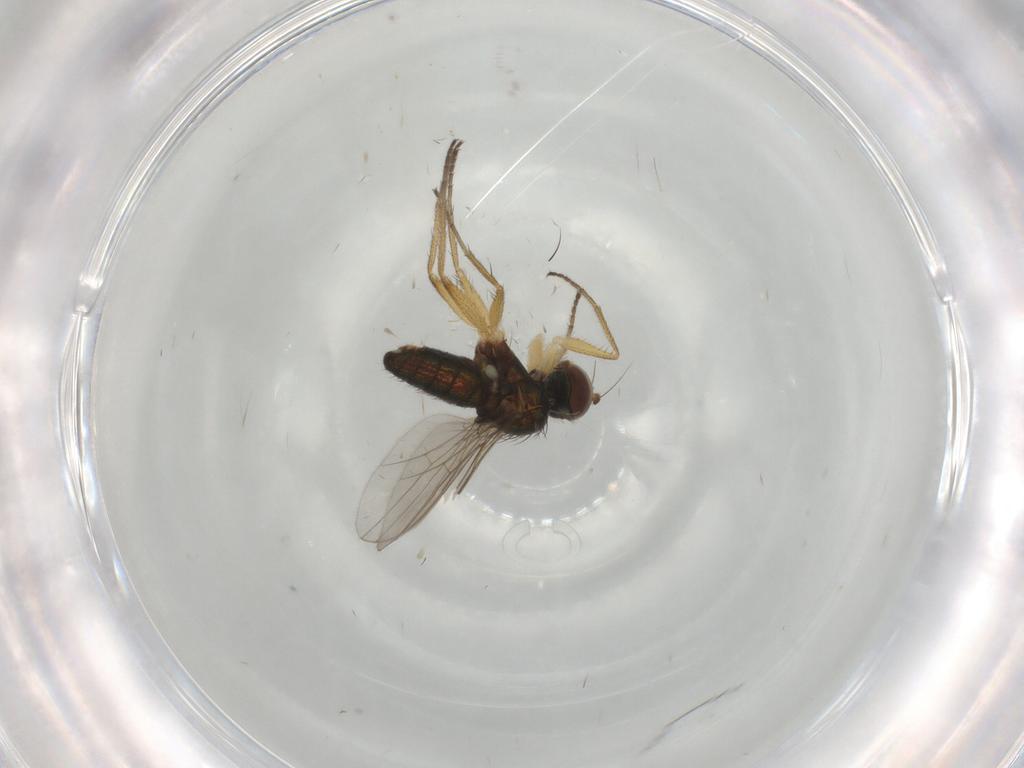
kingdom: Animalia
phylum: Arthropoda
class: Insecta
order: Diptera
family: Dolichopodidae
